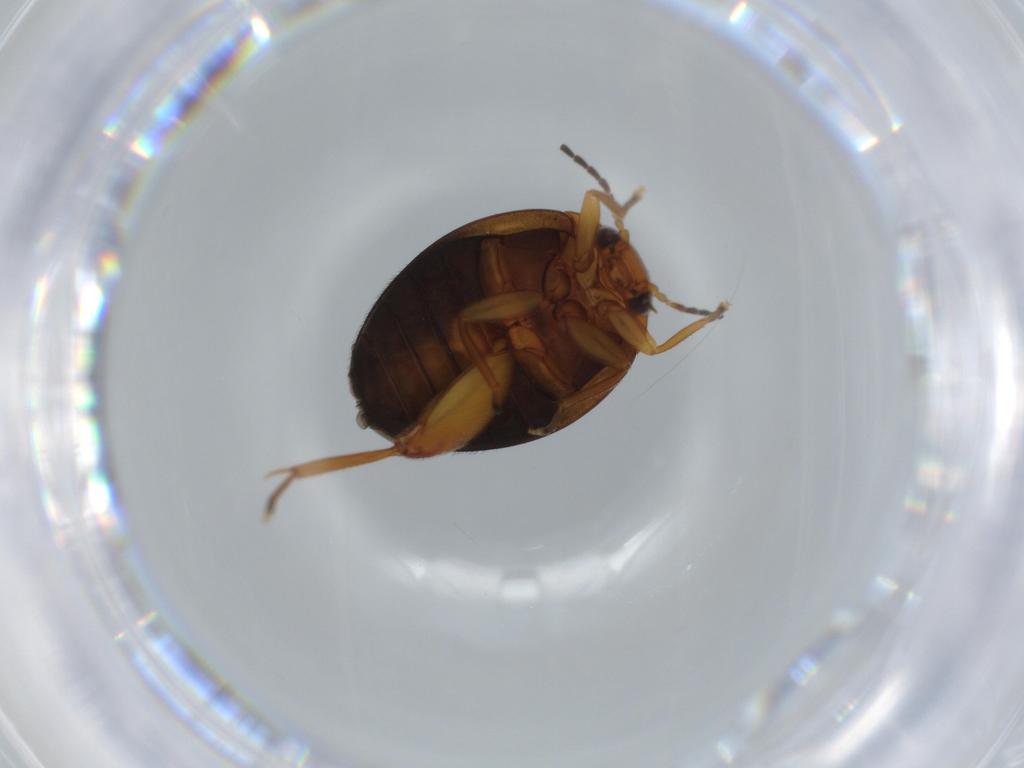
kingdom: Animalia
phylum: Arthropoda
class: Insecta
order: Coleoptera
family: Scirtidae
